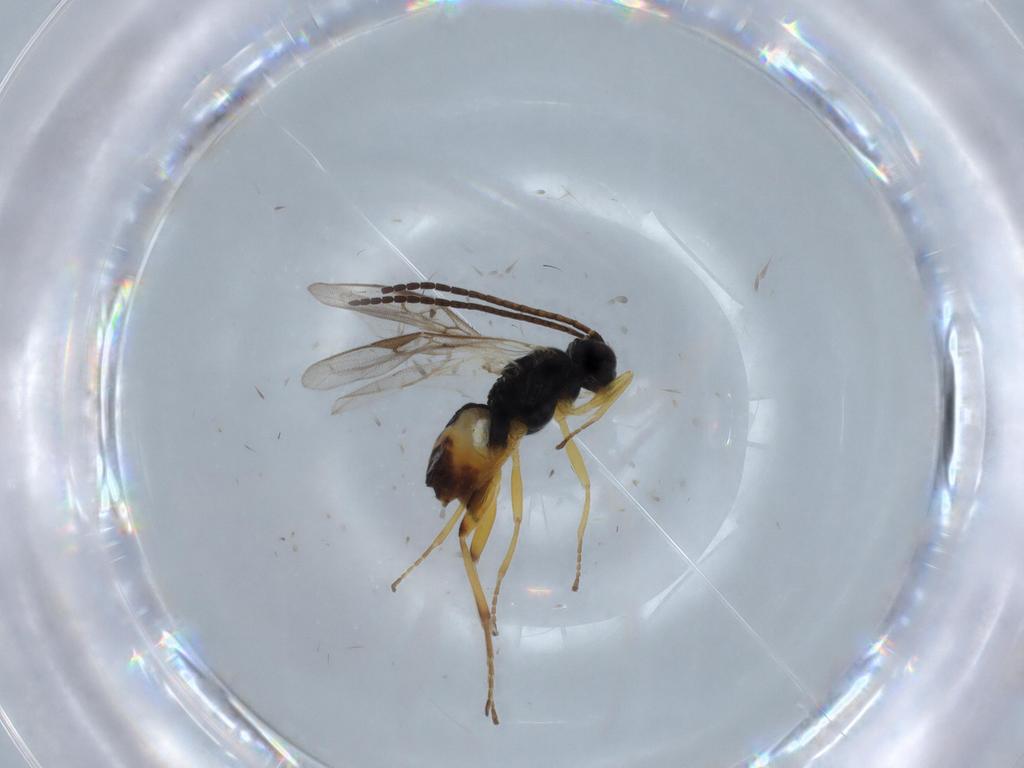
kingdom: Animalia
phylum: Arthropoda
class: Insecta
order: Hymenoptera
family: Braconidae
